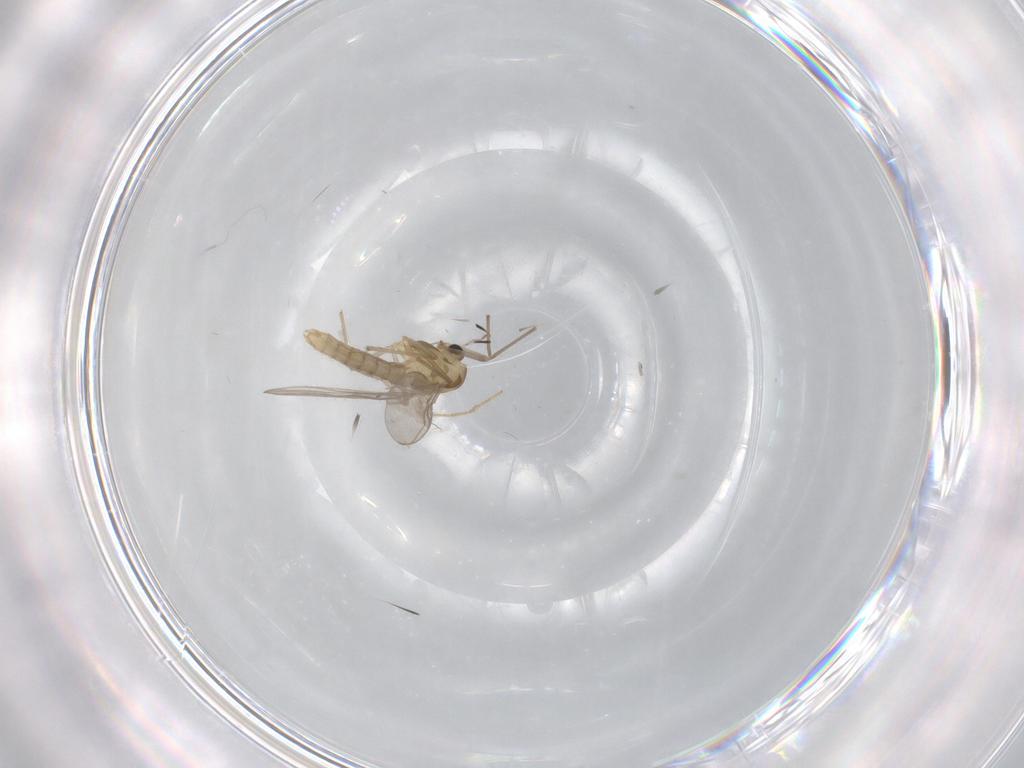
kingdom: Animalia
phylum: Arthropoda
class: Insecta
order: Diptera
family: Chironomidae
